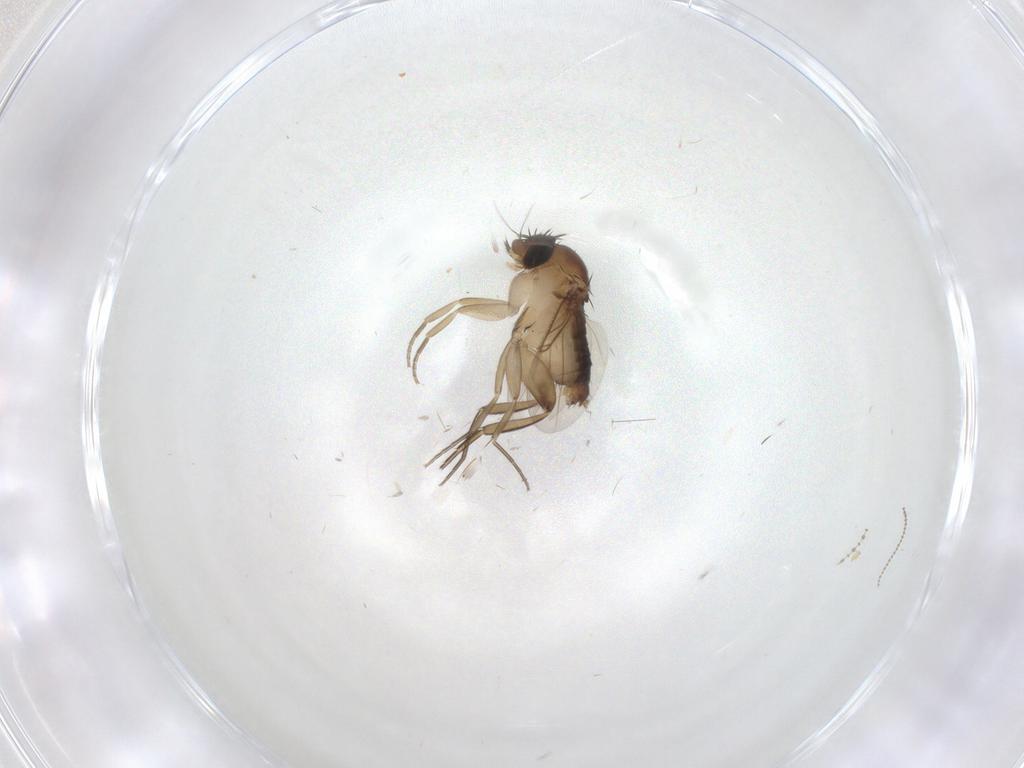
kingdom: Animalia
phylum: Arthropoda
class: Insecta
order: Diptera
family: Phoridae
